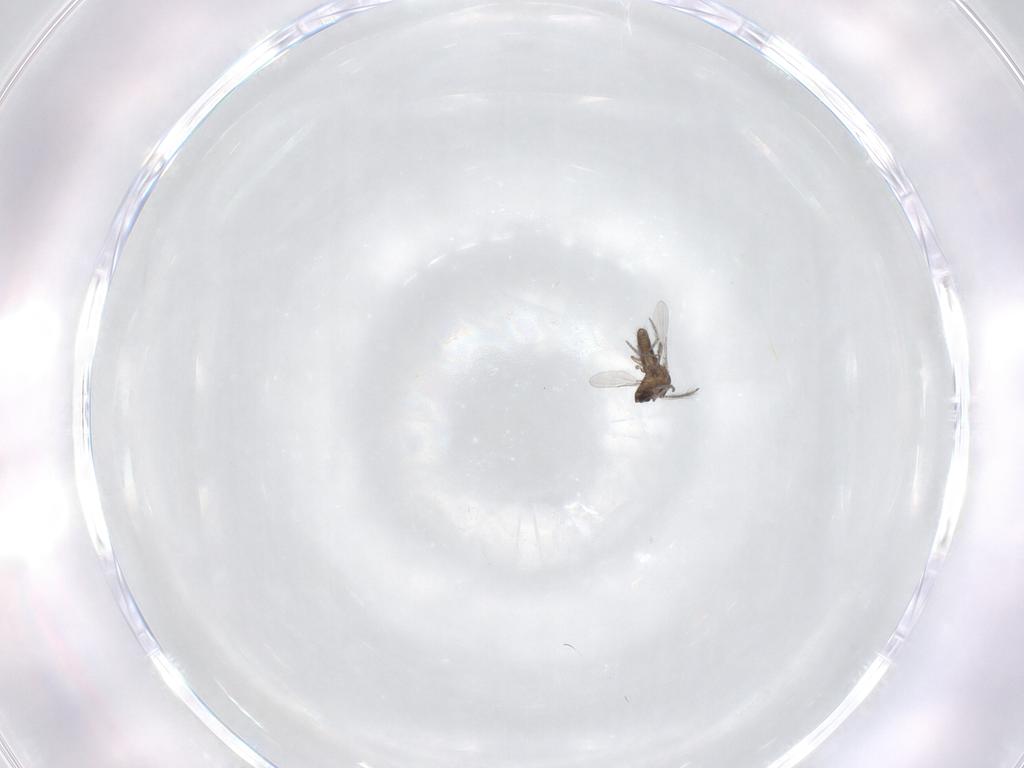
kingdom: Animalia
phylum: Arthropoda
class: Insecta
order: Diptera
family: Ceratopogonidae
